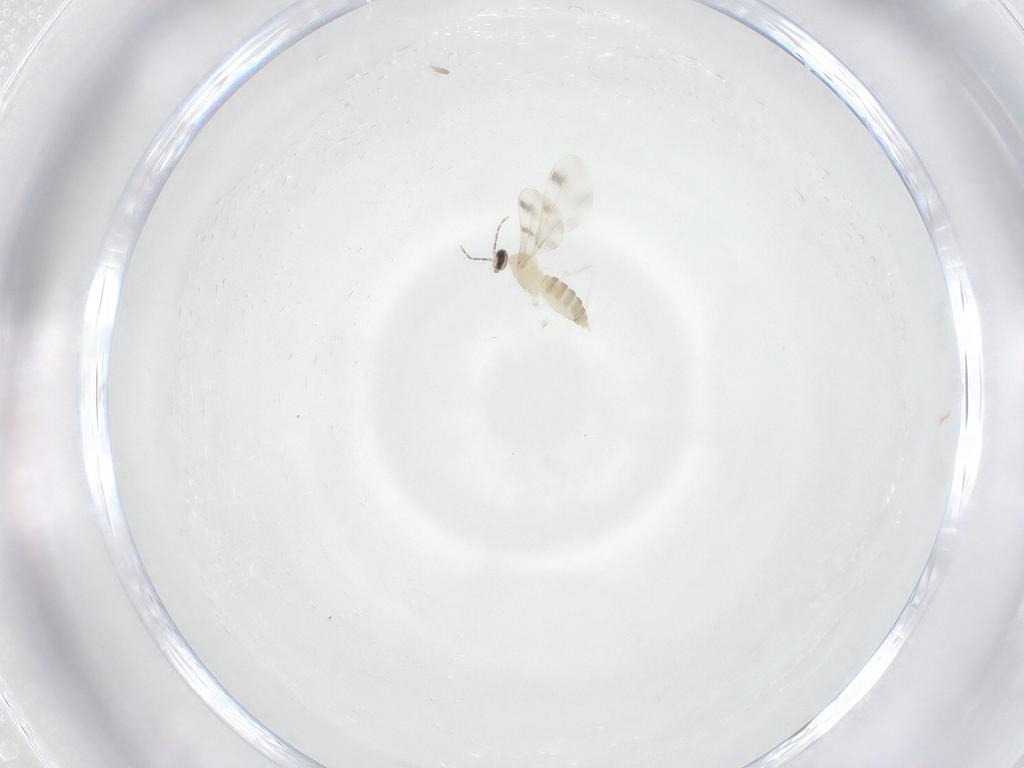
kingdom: Animalia
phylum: Arthropoda
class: Insecta
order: Diptera
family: Cecidomyiidae
